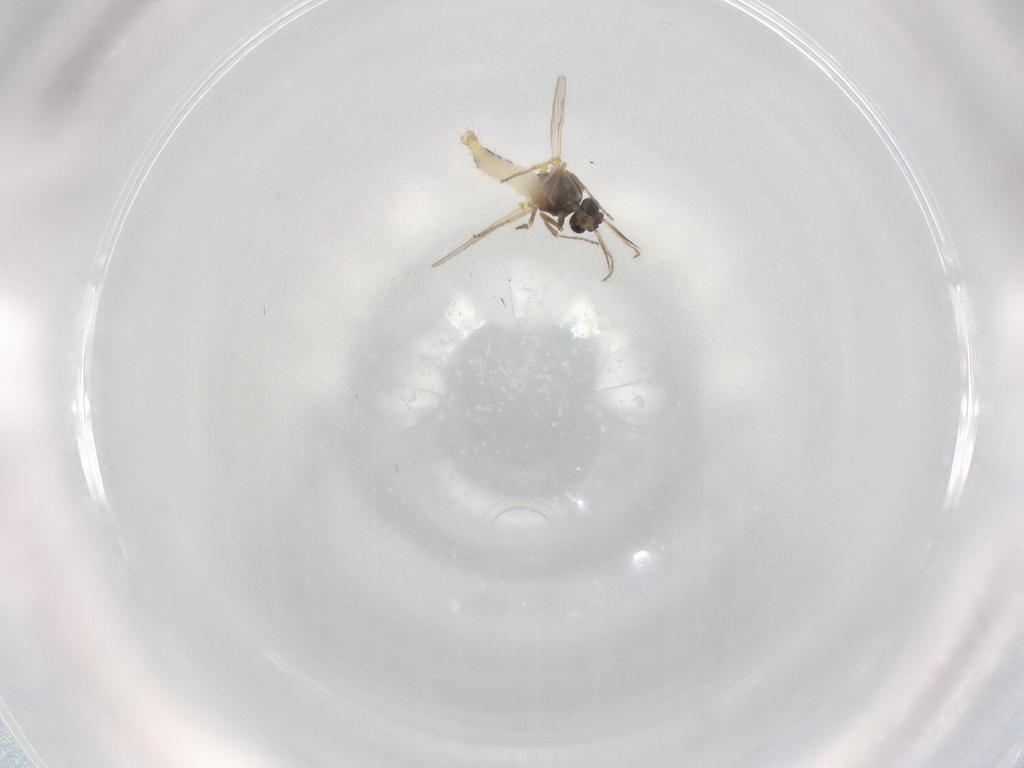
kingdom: Animalia
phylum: Arthropoda
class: Insecta
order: Diptera
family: Ceratopogonidae
